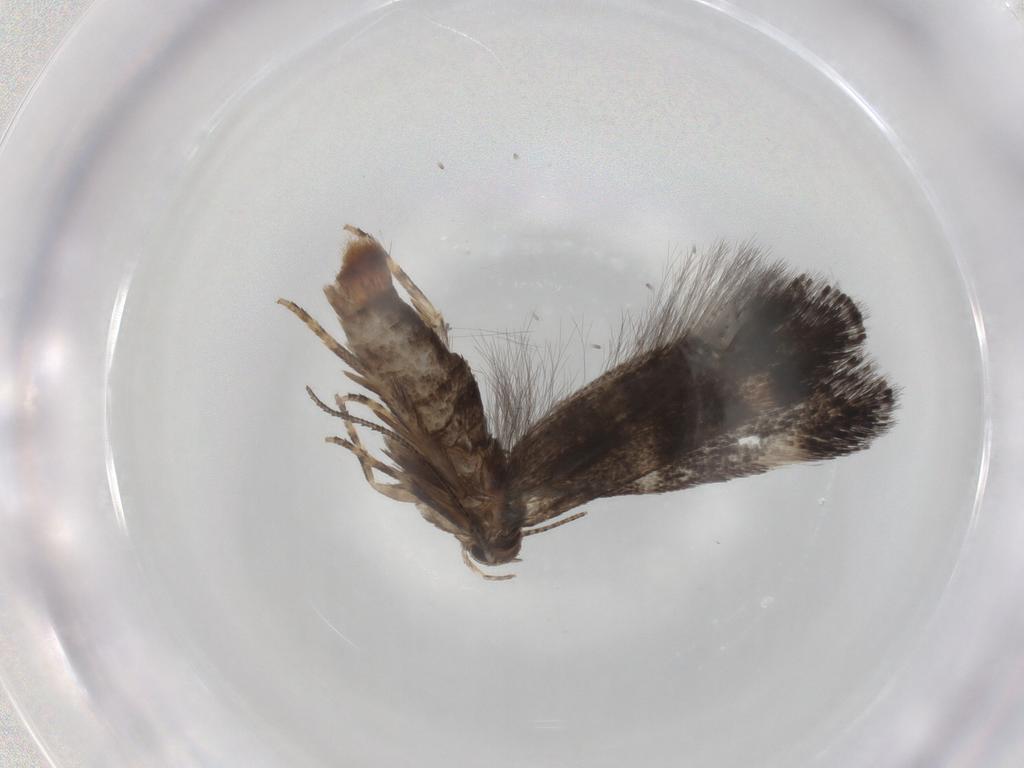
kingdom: Animalia
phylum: Arthropoda
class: Insecta
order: Lepidoptera
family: Elachistidae
